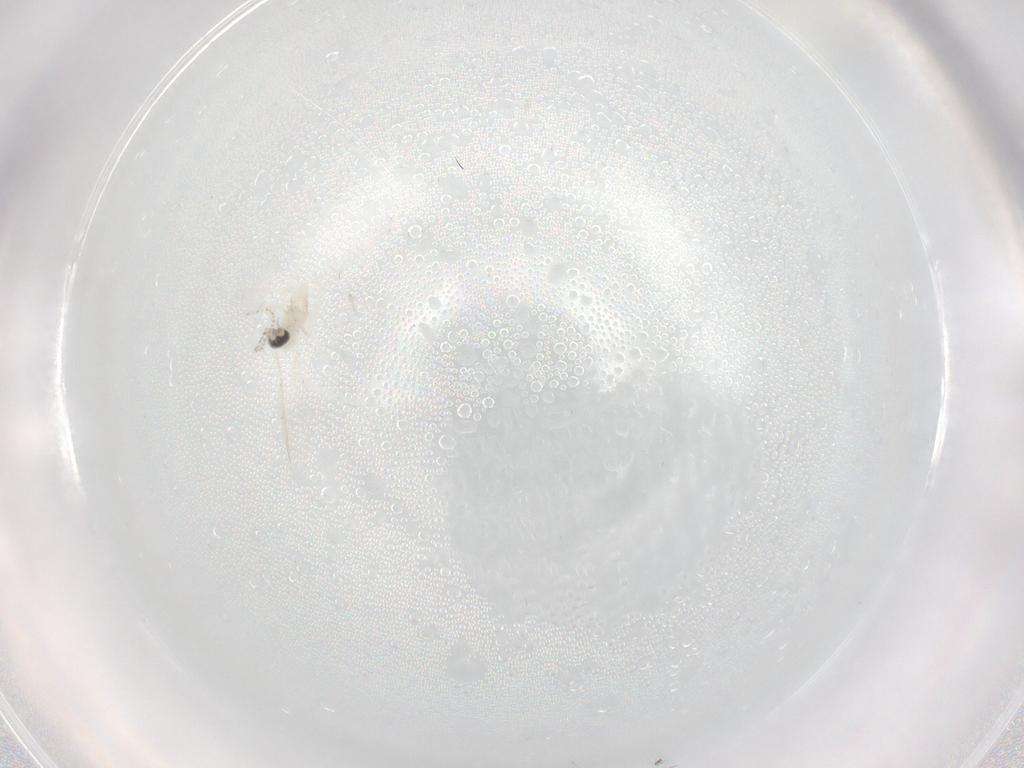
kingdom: Animalia
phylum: Arthropoda
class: Insecta
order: Diptera
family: Cecidomyiidae
